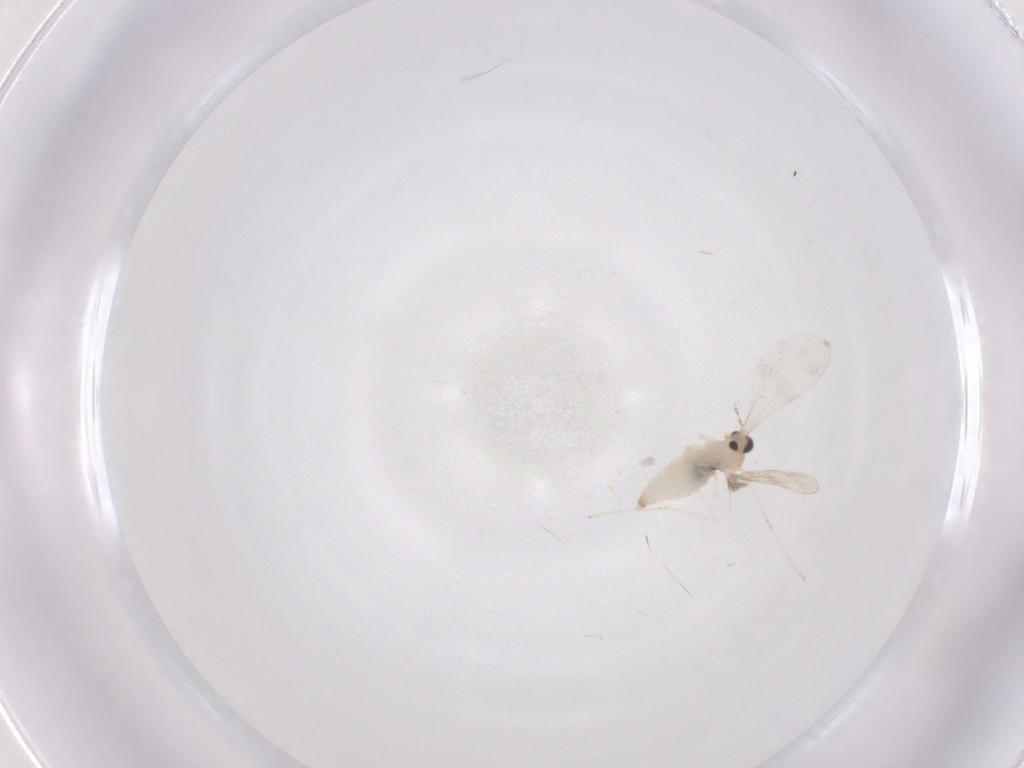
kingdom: Animalia
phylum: Arthropoda
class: Insecta
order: Diptera
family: Cecidomyiidae
